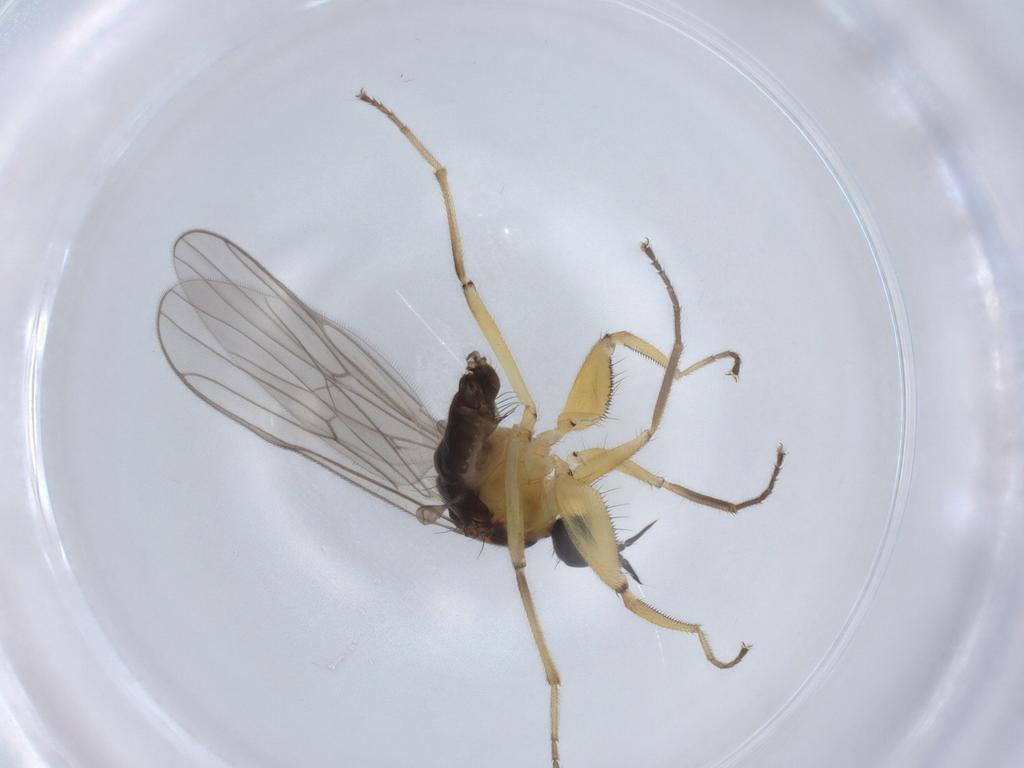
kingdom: Animalia
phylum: Arthropoda
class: Insecta
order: Diptera
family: Hybotidae
